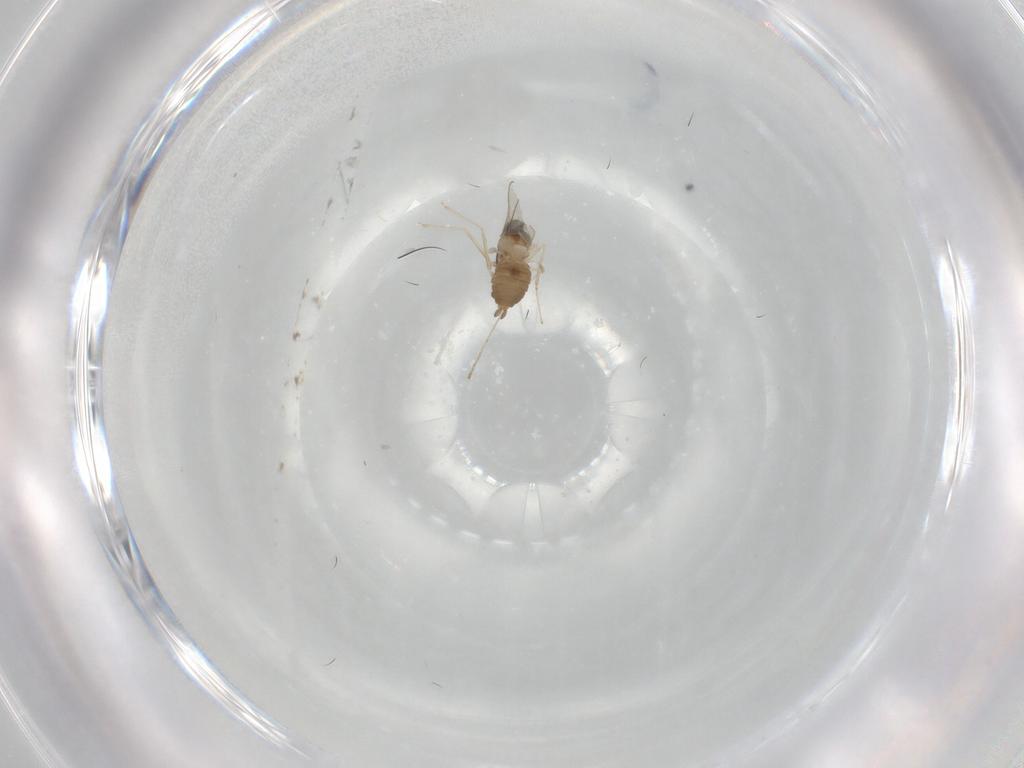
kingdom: Animalia
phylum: Arthropoda
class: Insecta
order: Diptera
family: Cecidomyiidae
